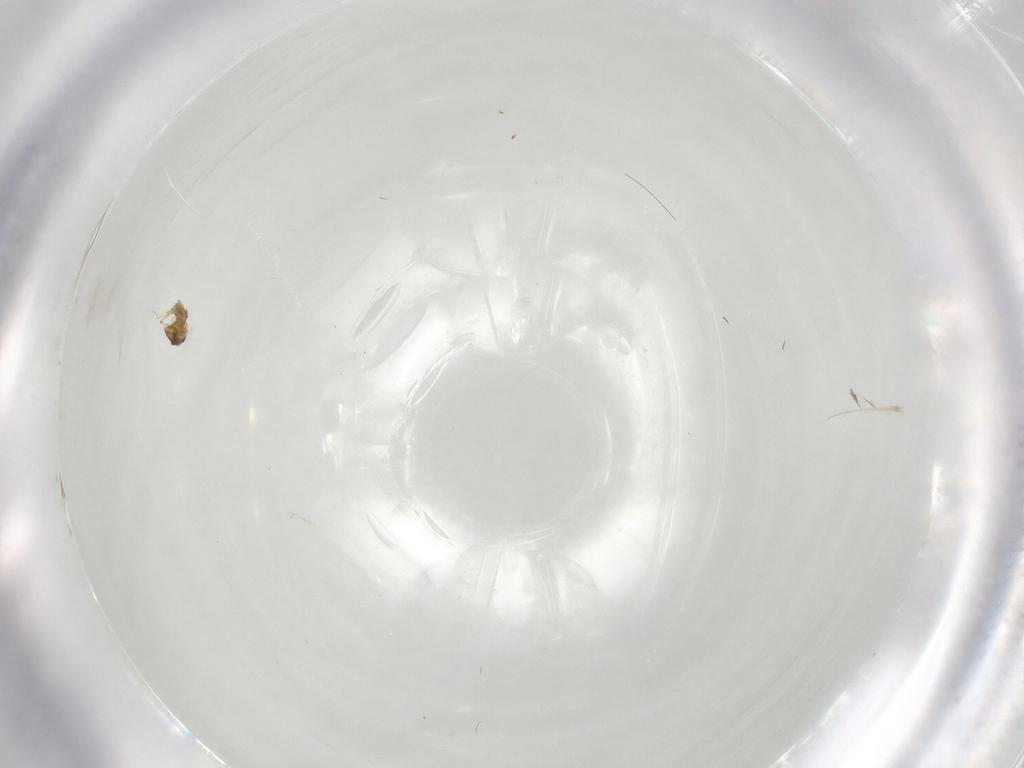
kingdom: Animalia
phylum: Arthropoda
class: Insecta
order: Diptera
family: Cecidomyiidae
